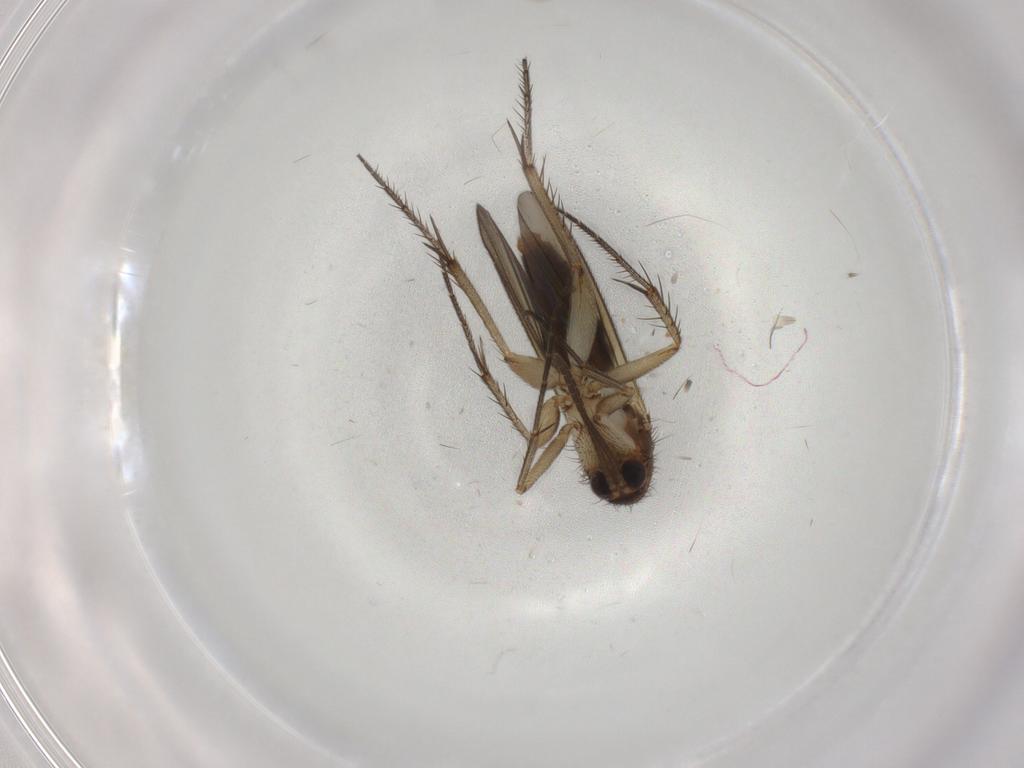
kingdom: Animalia
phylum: Arthropoda
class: Insecta
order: Diptera
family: Mycetophilidae
